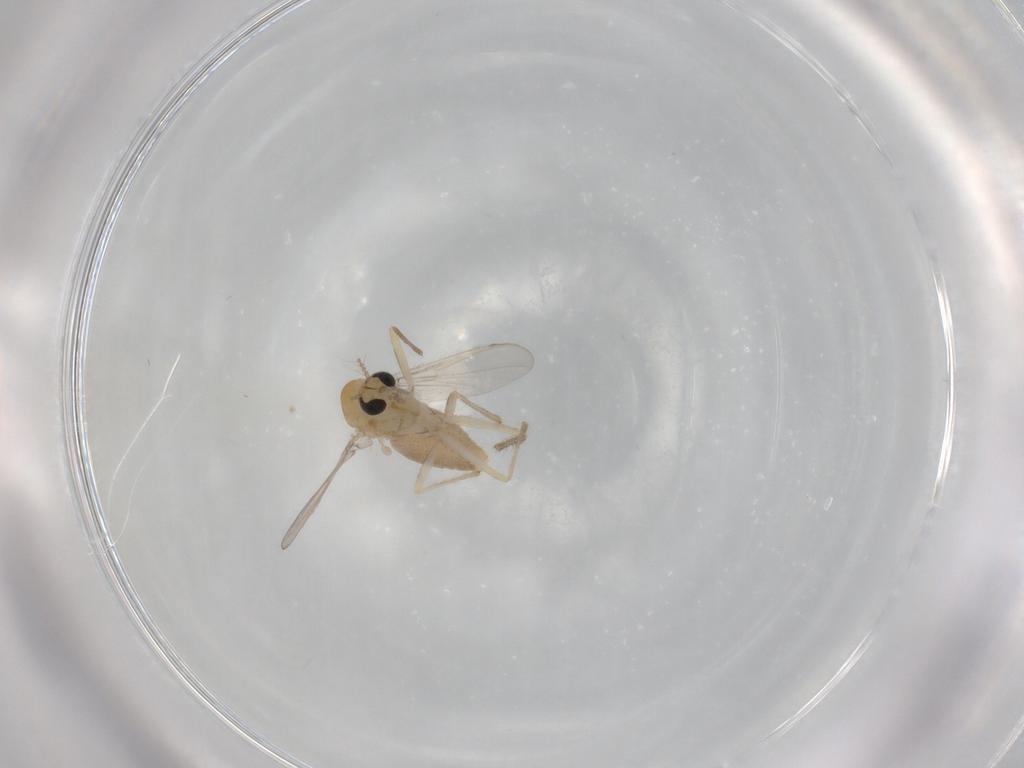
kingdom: Animalia
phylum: Arthropoda
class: Insecta
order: Diptera
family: Chironomidae
